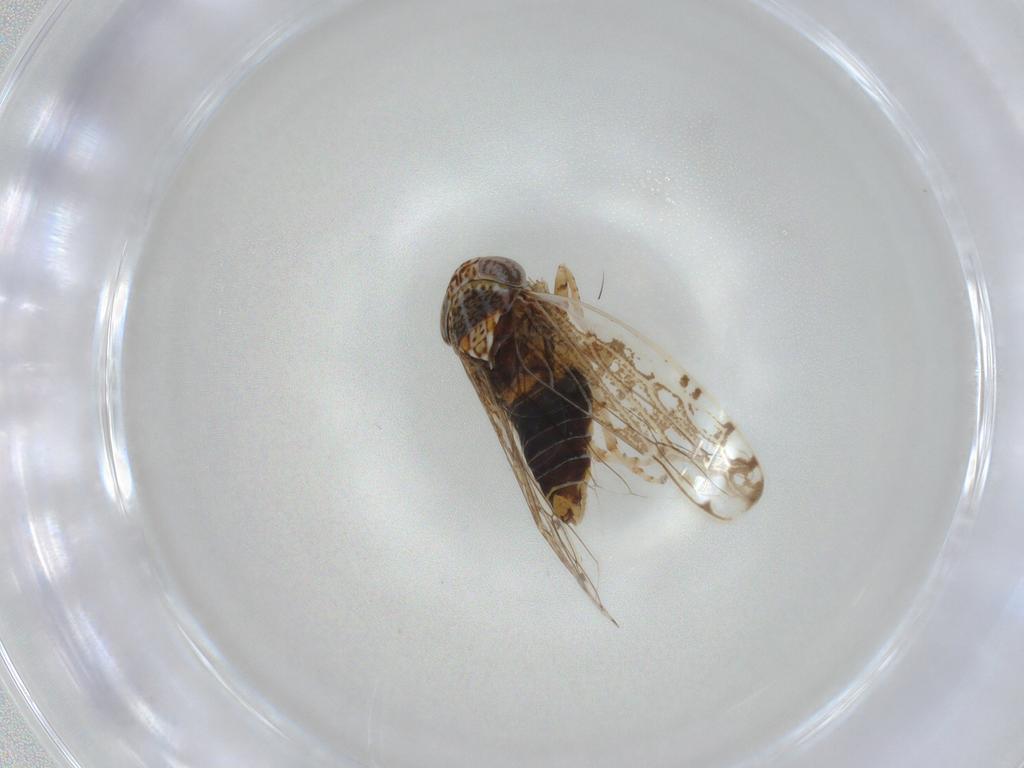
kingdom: Animalia
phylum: Arthropoda
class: Insecta
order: Hemiptera
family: Cicadellidae
